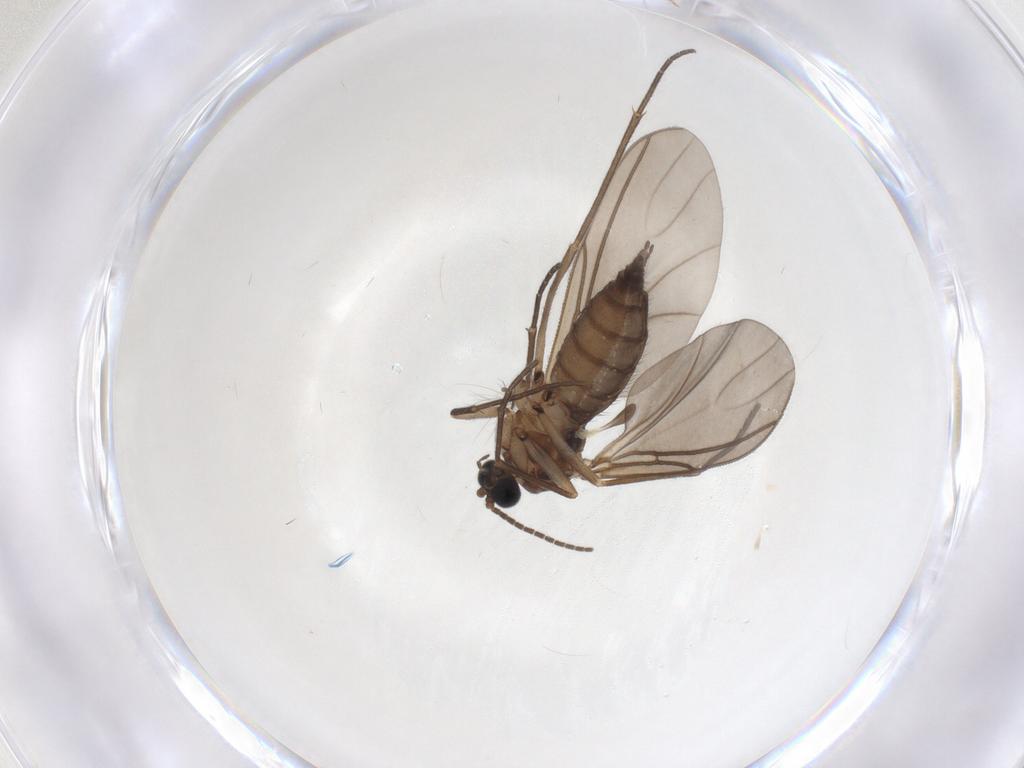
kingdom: Animalia
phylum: Arthropoda
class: Insecta
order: Diptera
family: Sciaridae
